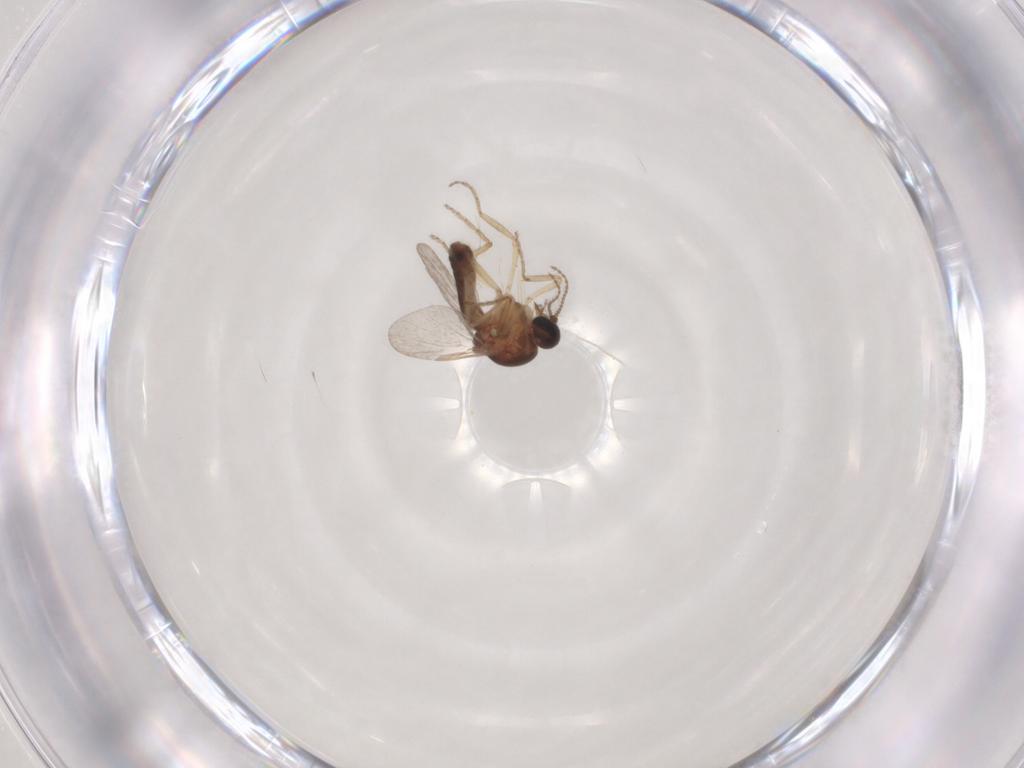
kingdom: Animalia
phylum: Arthropoda
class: Insecta
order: Diptera
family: Ceratopogonidae
